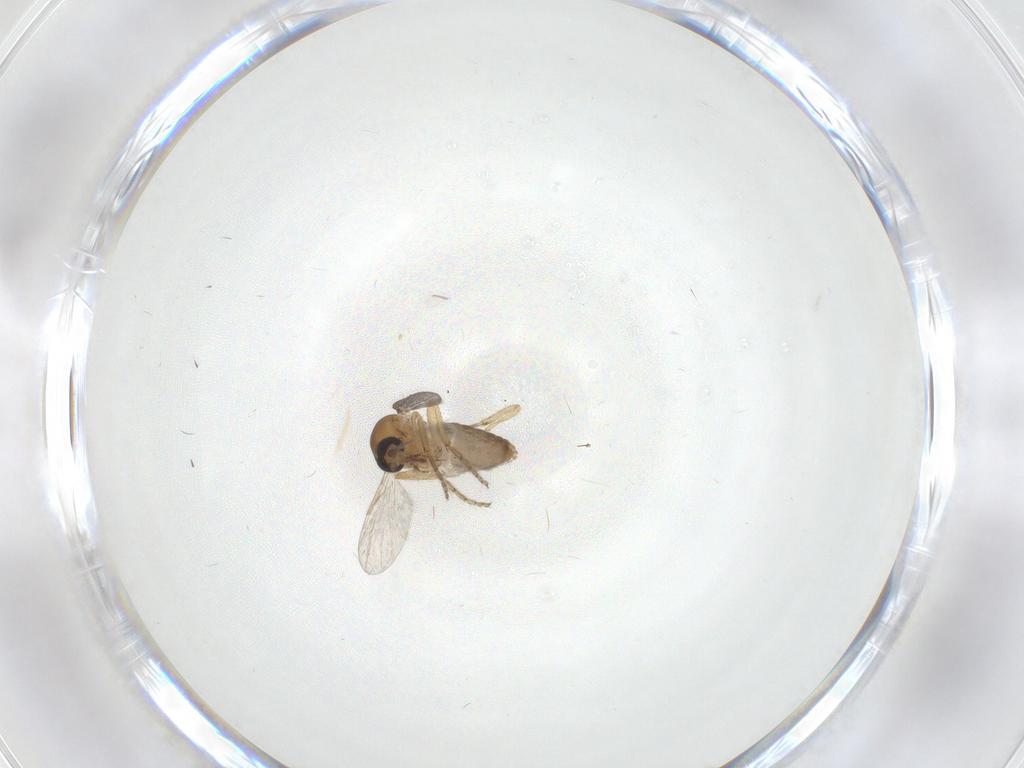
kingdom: Animalia
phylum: Arthropoda
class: Insecta
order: Diptera
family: Ceratopogonidae
